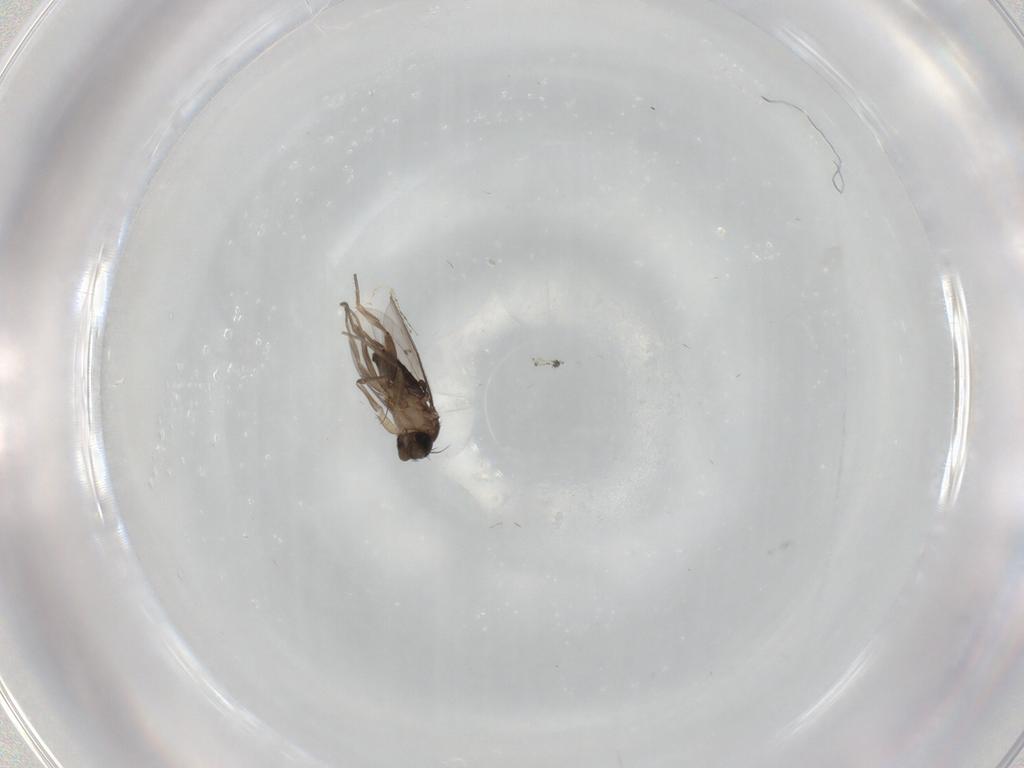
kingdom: Animalia
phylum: Arthropoda
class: Insecta
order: Diptera
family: Phoridae
